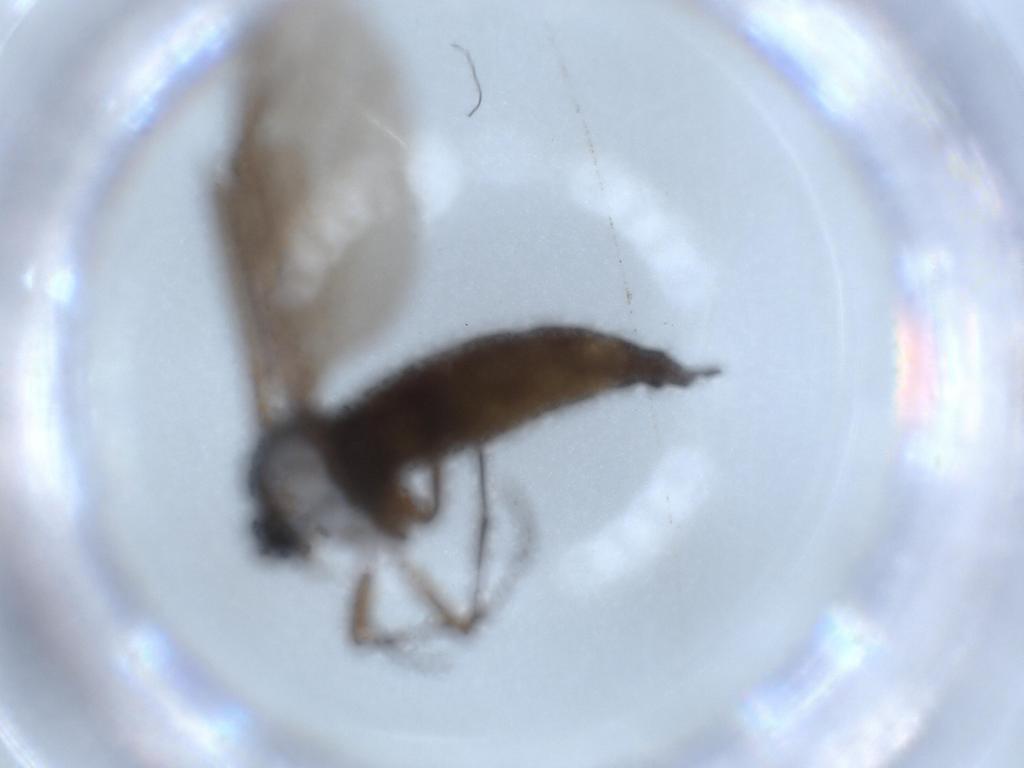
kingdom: Animalia
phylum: Arthropoda
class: Insecta
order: Diptera
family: Sciaridae
